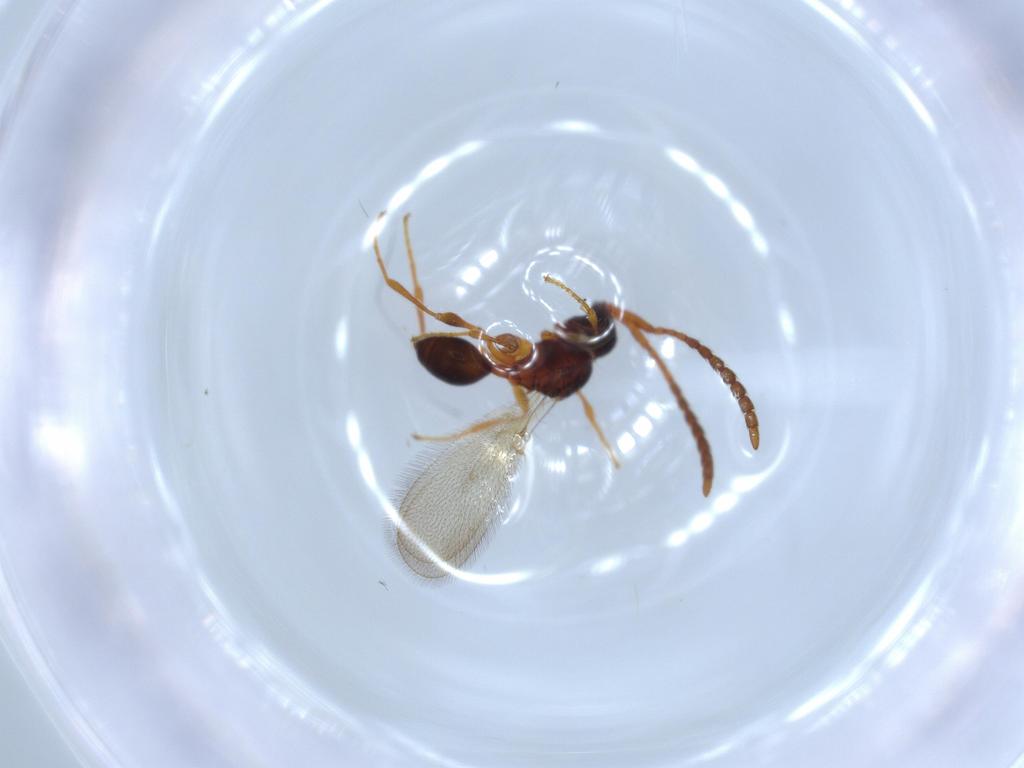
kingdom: Animalia
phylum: Arthropoda
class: Insecta
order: Hymenoptera
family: Diapriidae
